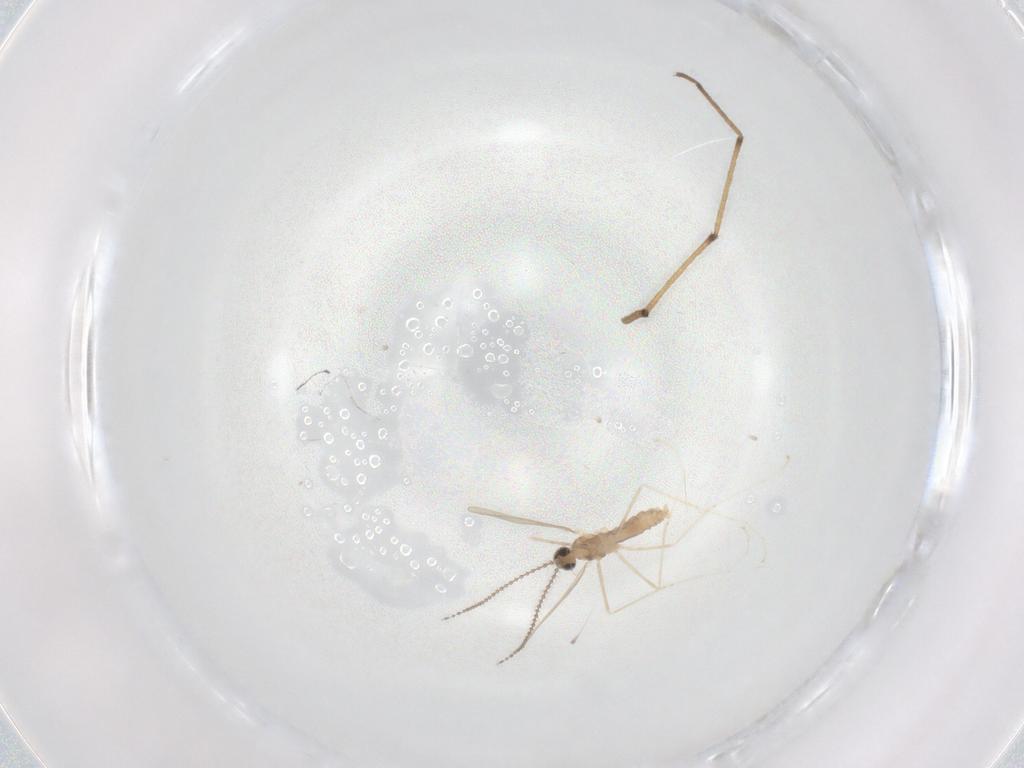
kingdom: Animalia
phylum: Arthropoda
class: Insecta
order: Diptera
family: Cecidomyiidae
